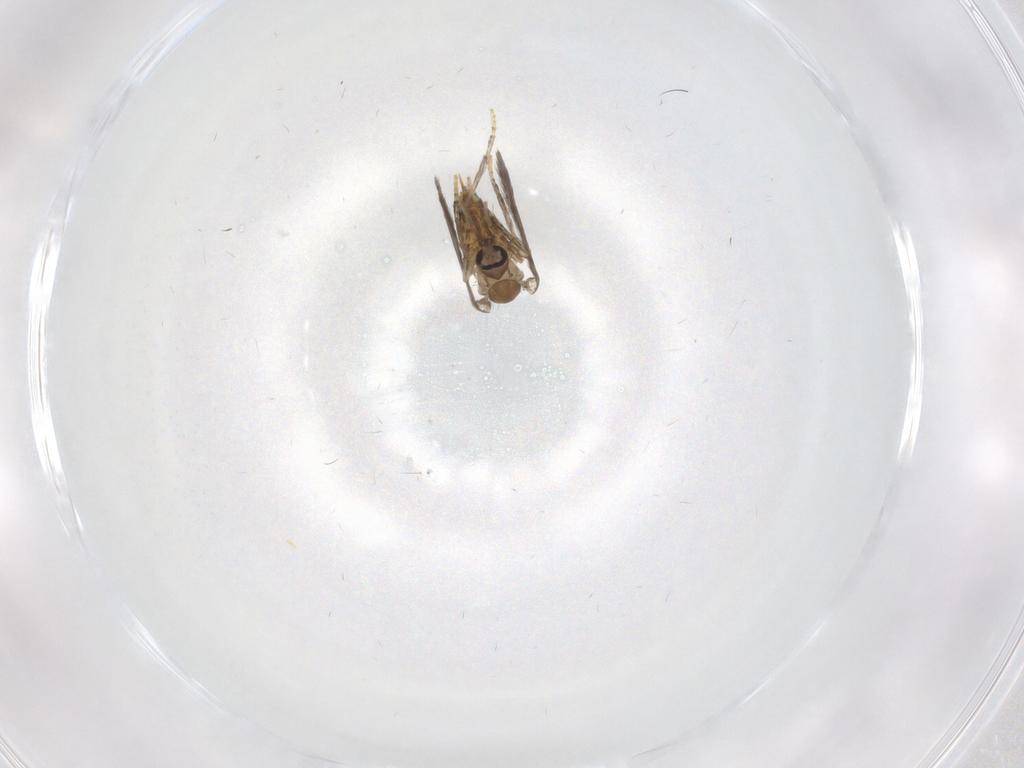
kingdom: Animalia
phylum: Arthropoda
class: Insecta
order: Diptera
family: Psychodidae
